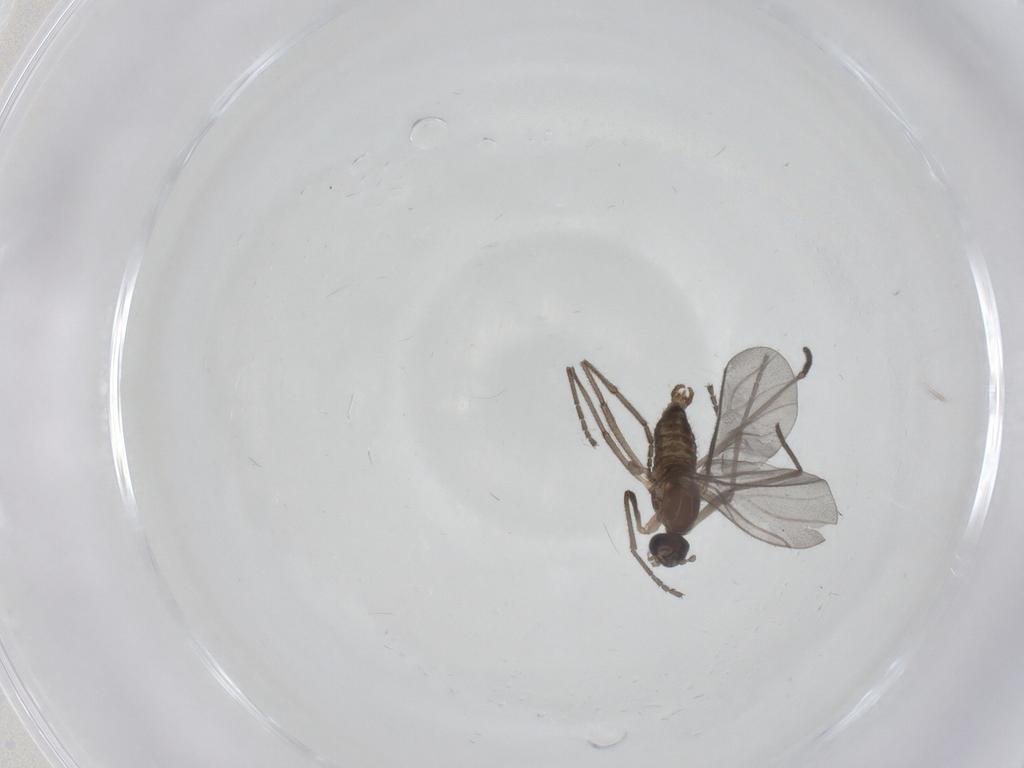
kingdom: Animalia
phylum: Arthropoda
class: Insecta
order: Diptera
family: Cecidomyiidae
